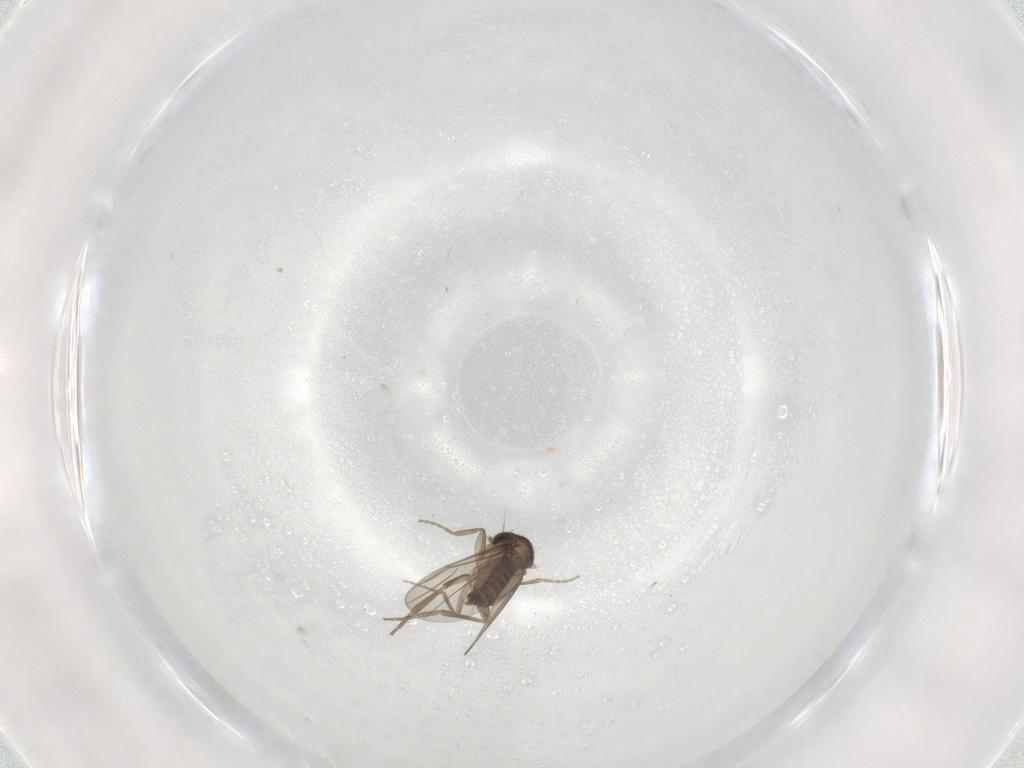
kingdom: Animalia
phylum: Arthropoda
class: Insecta
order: Diptera
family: Phoridae
